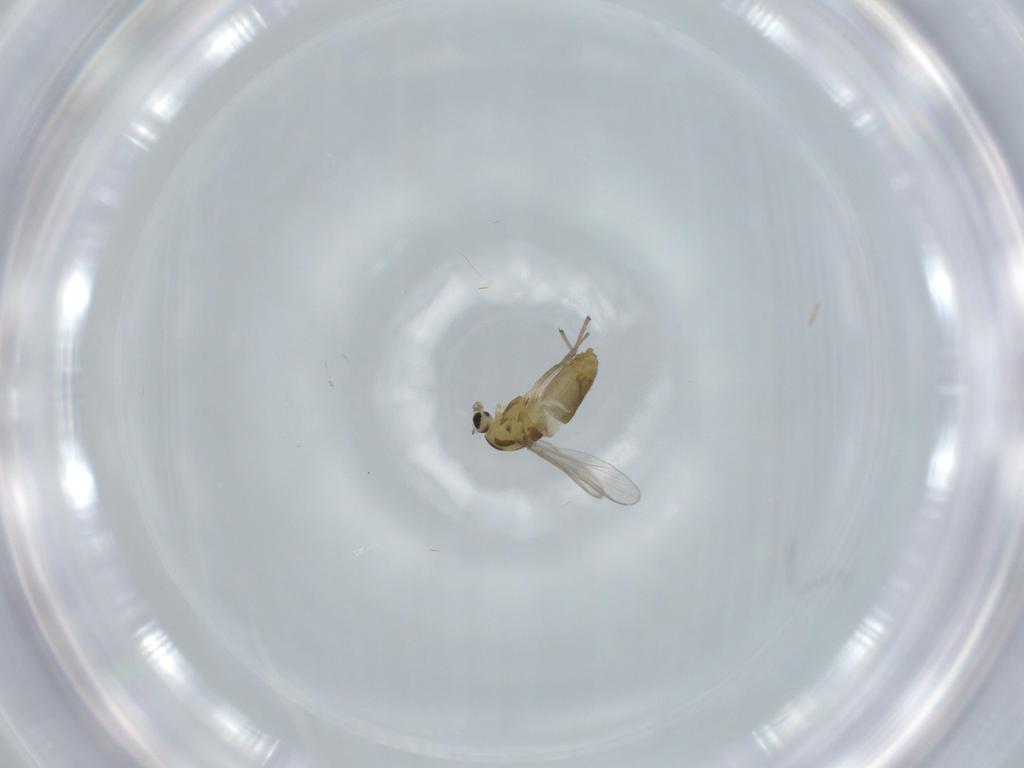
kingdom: Animalia
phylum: Arthropoda
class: Insecta
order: Diptera
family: Chironomidae
